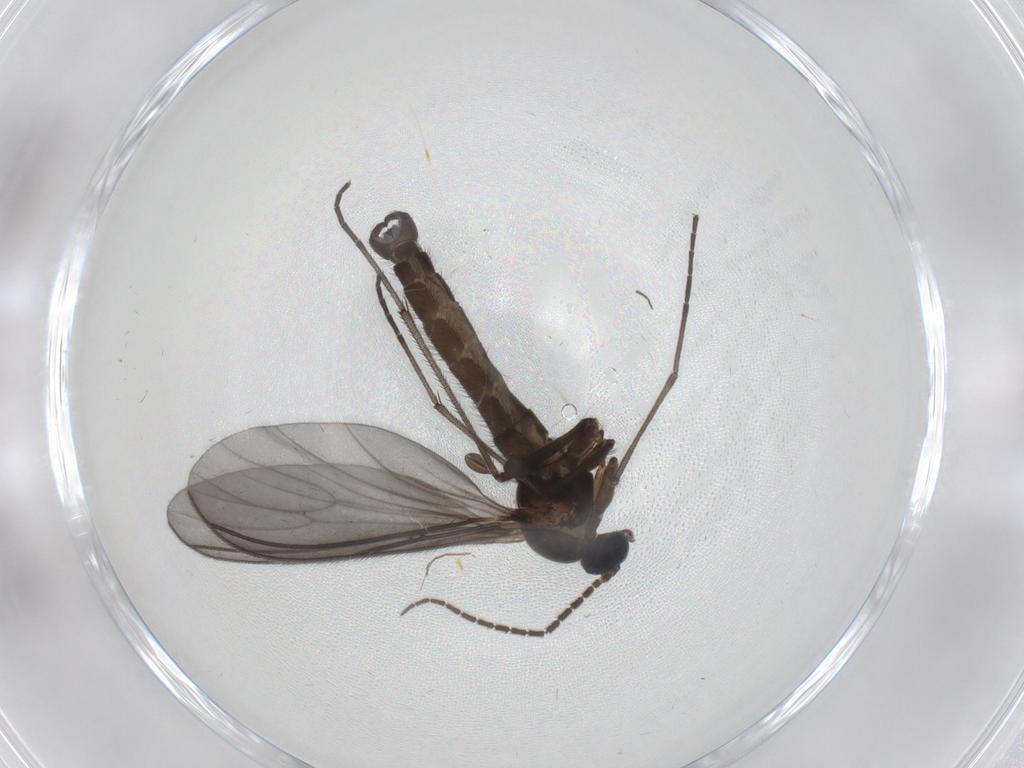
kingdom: Animalia
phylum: Arthropoda
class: Insecta
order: Diptera
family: Sciaridae
